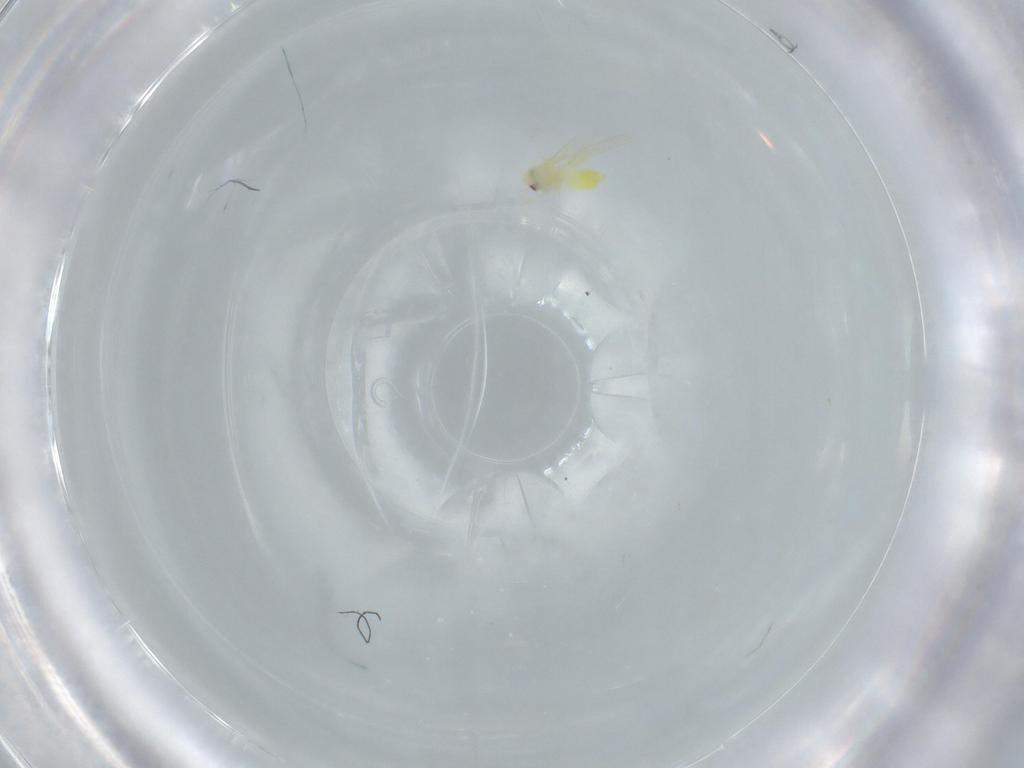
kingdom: Animalia
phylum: Arthropoda
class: Insecta
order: Hemiptera
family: Aleyrodidae
